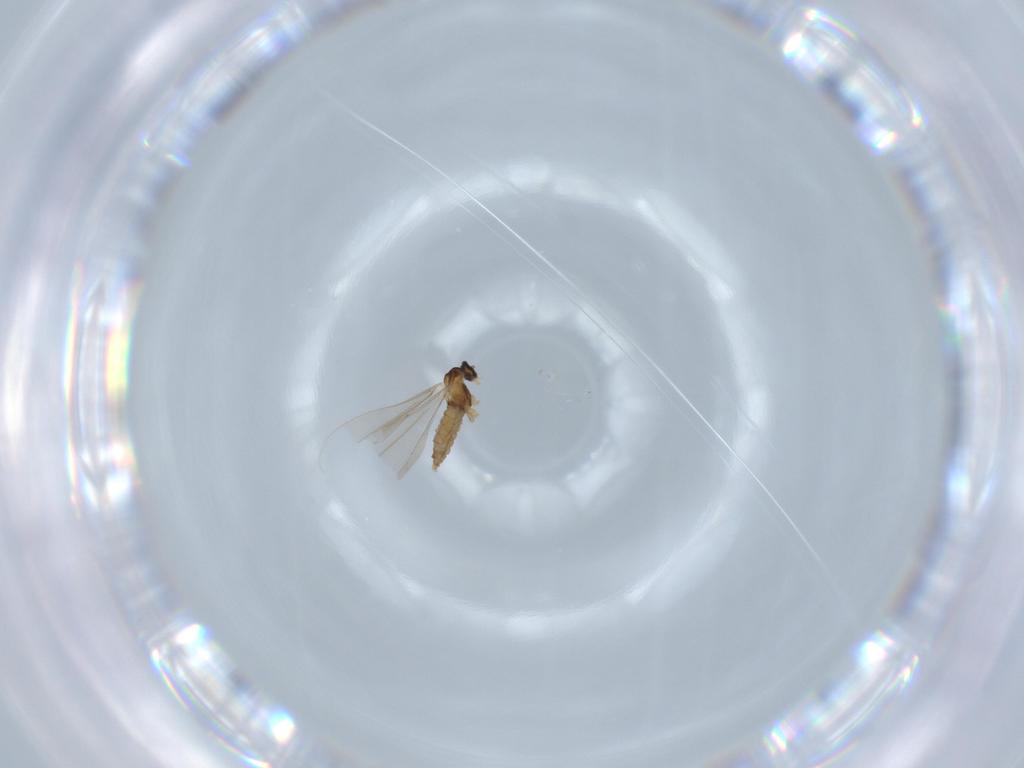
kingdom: Animalia
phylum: Arthropoda
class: Insecta
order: Diptera
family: Cecidomyiidae
